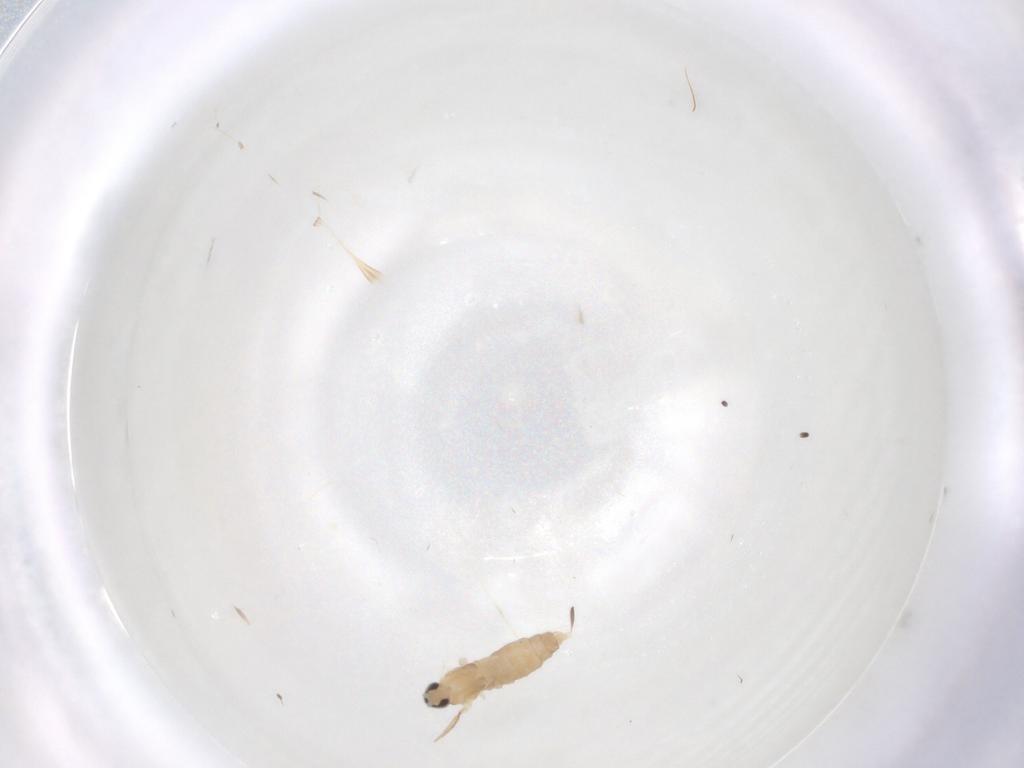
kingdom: Animalia
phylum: Arthropoda
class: Insecta
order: Diptera
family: Cecidomyiidae
